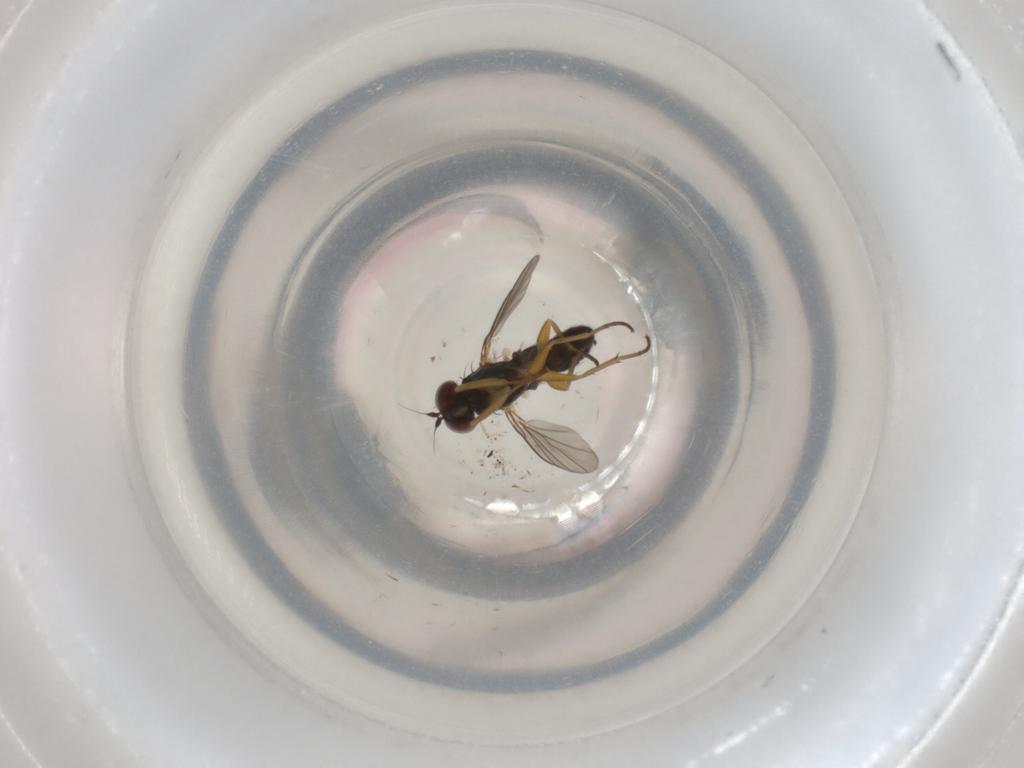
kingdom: Animalia
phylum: Arthropoda
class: Insecta
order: Diptera
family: Dolichopodidae
